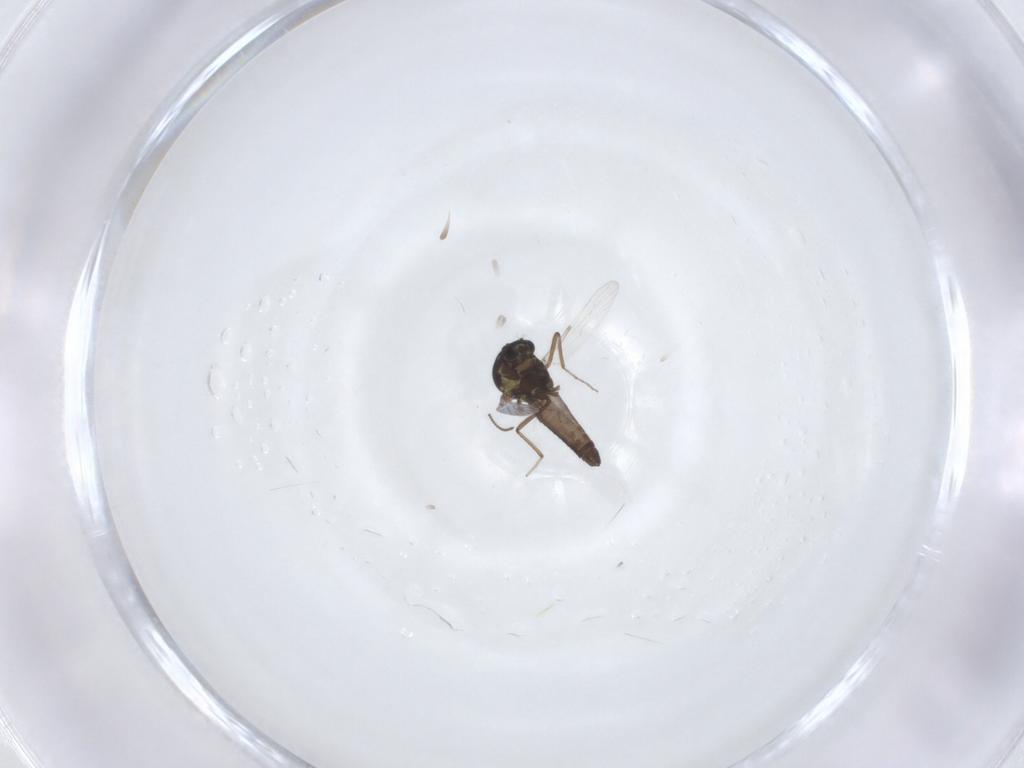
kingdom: Animalia
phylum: Arthropoda
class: Insecta
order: Diptera
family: Ceratopogonidae
